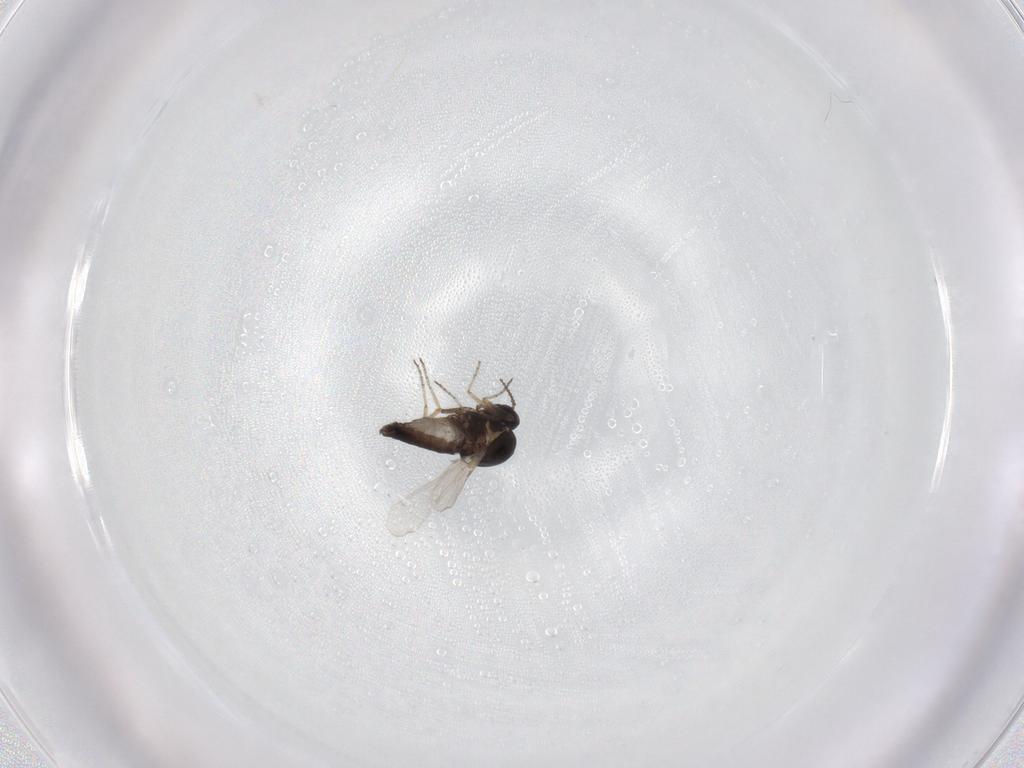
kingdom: Animalia
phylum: Arthropoda
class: Insecta
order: Diptera
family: Ceratopogonidae
